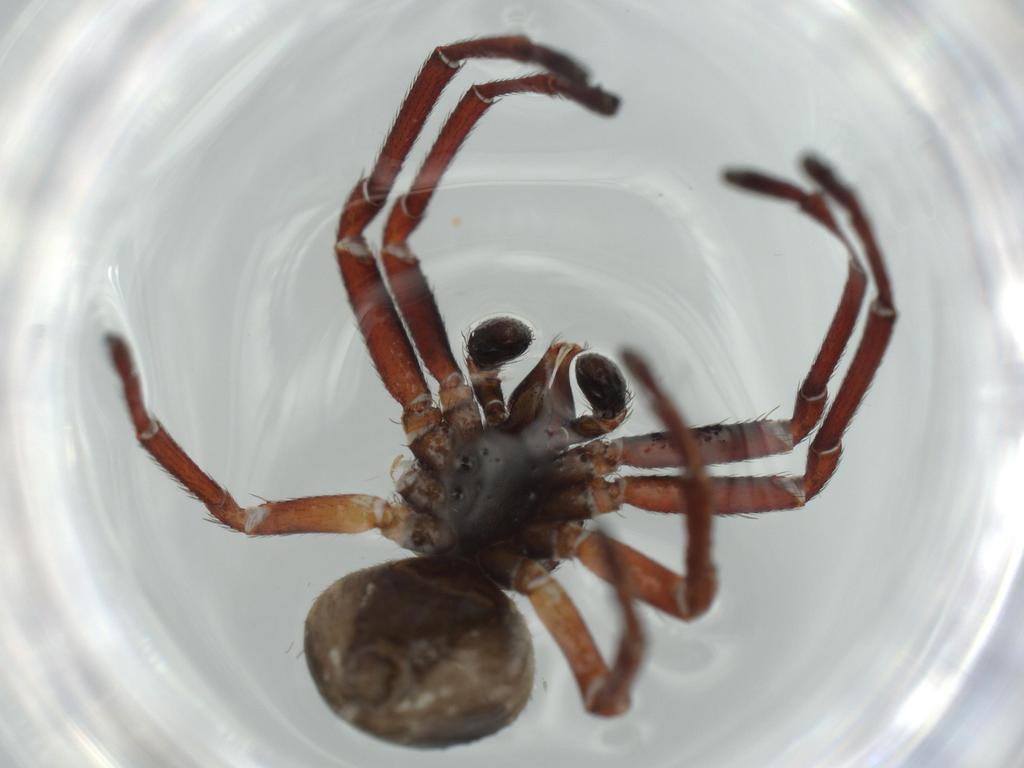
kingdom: Animalia
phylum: Arthropoda
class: Arachnida
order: Araneae
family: Thomisidae
